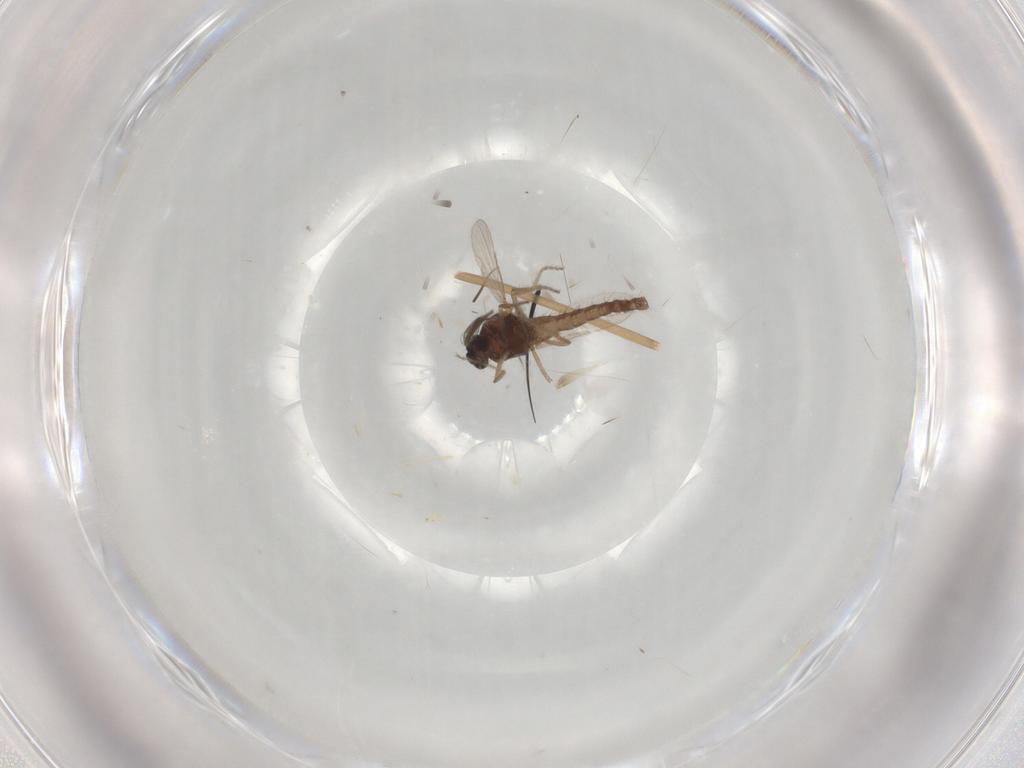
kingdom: Animalia
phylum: Arthropoda
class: Insecta
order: Diptera
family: Ceratopogonidae
